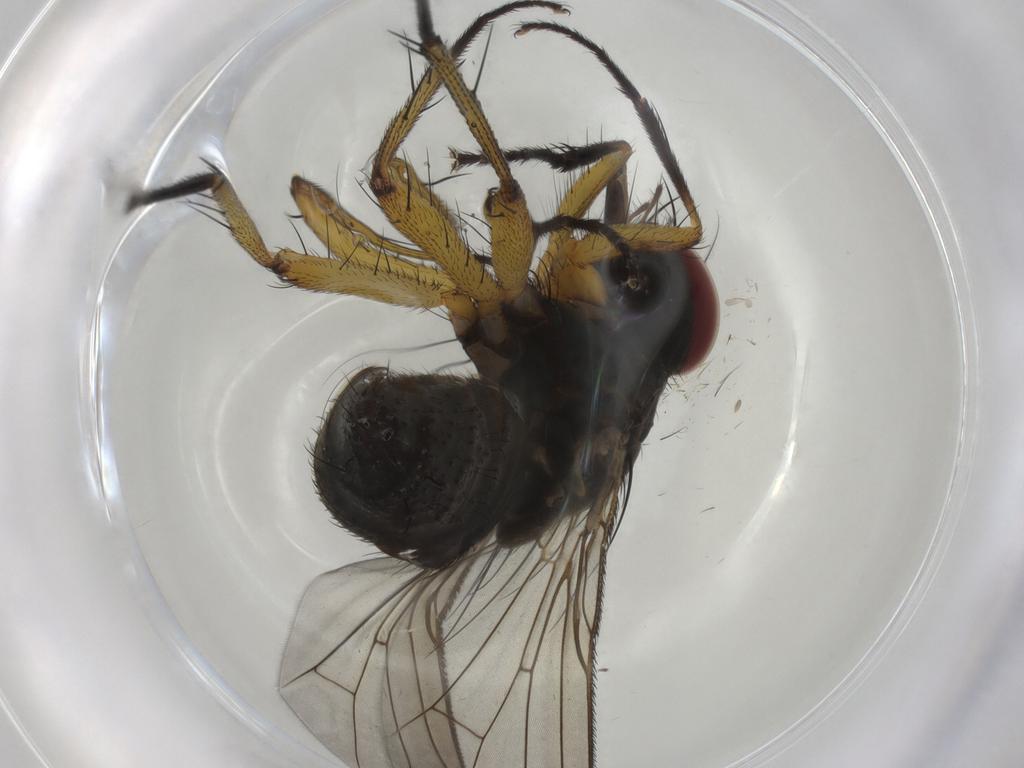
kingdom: Animalia
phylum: Arthropoda
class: Insecta
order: Diptera
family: Muscidae
